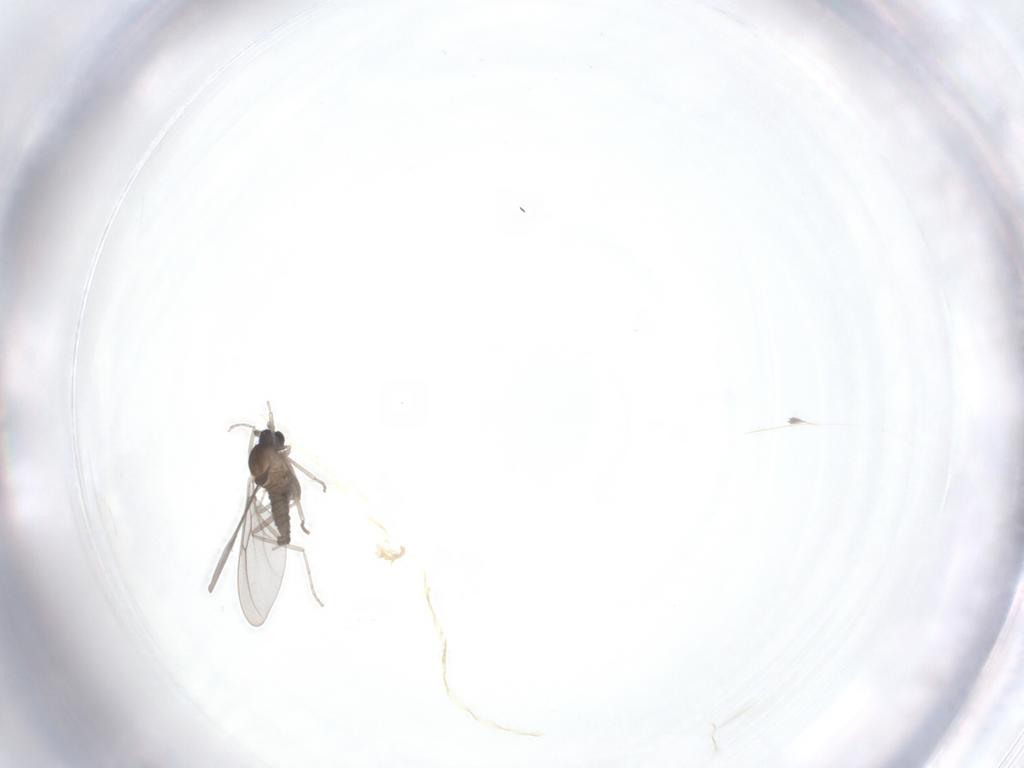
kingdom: Animalia
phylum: Arthropoda
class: Insecta
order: Diptera
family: Cecidomyiidae
